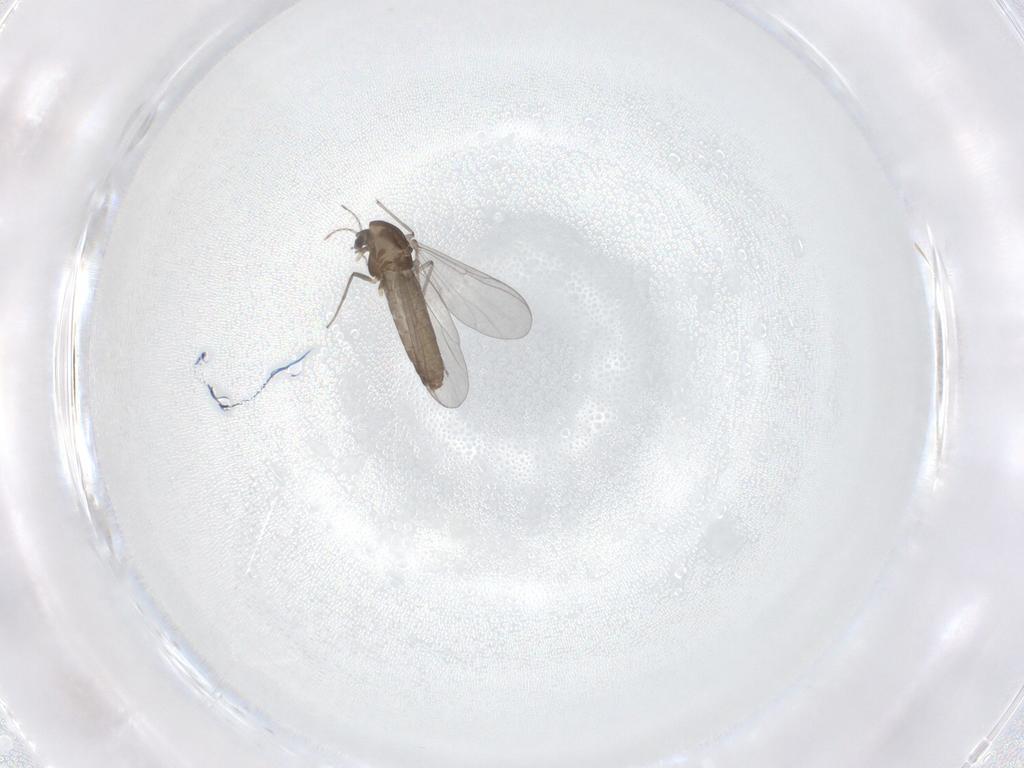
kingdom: Animalia
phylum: Arthropoda
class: Insecta
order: Diptera
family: Chironomidae
